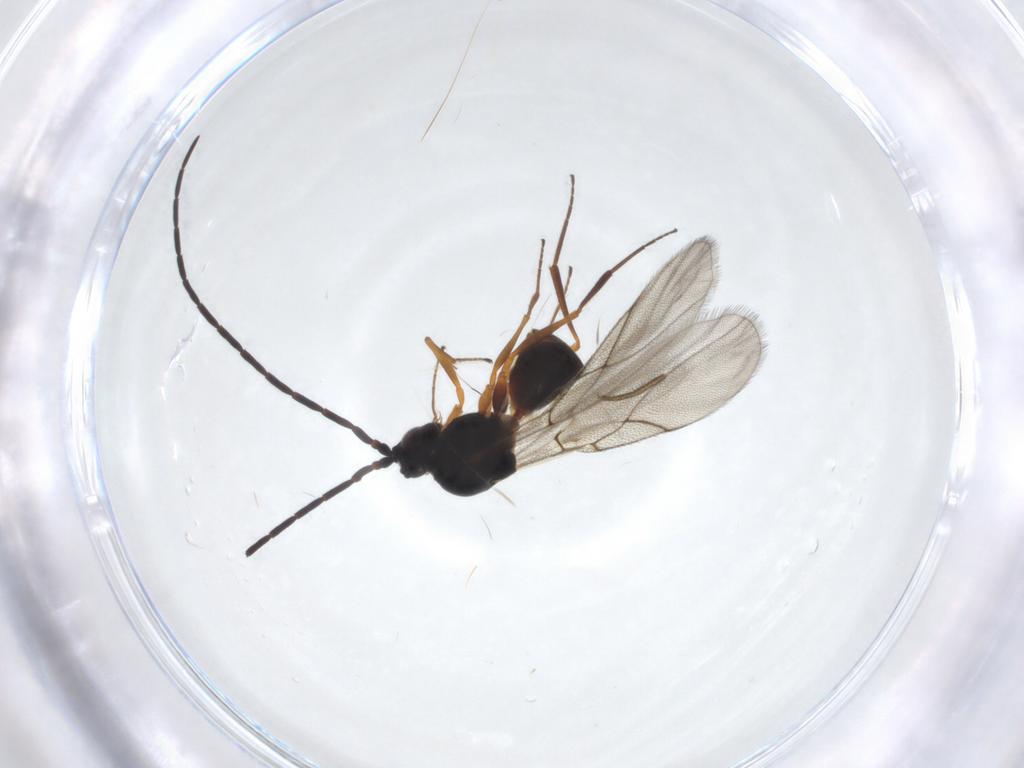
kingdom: Animalia
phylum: Arthropoda
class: Insecta
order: Hymenoptera
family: Figitidae
